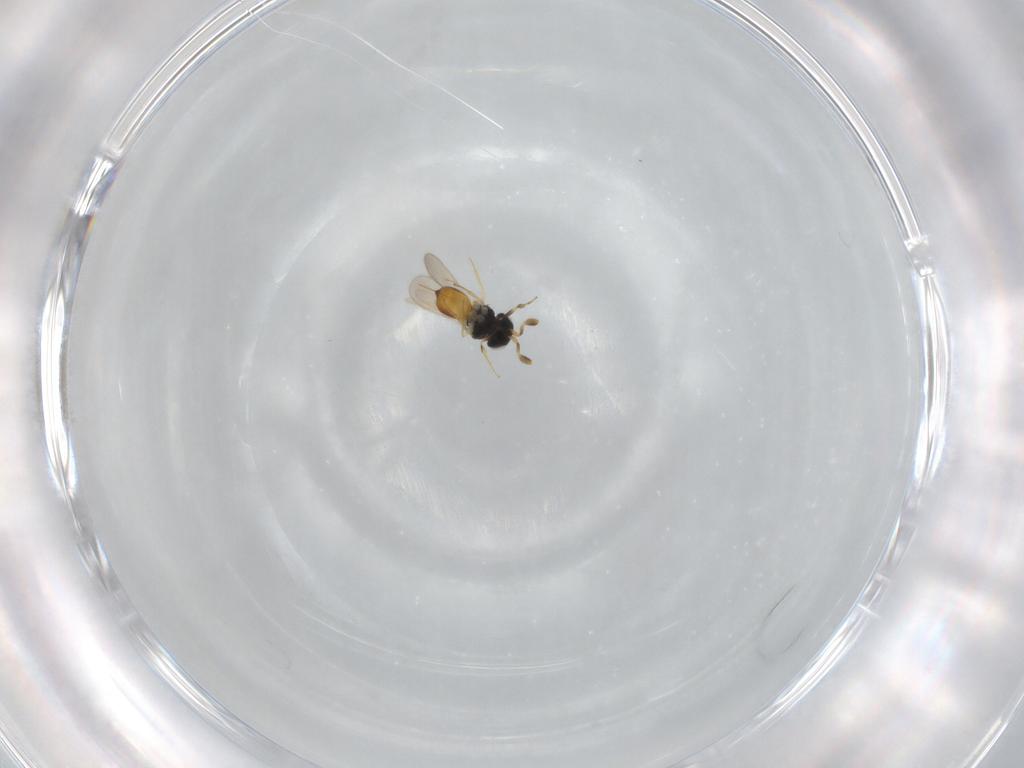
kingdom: Animalia
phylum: Arthropoda
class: Insecta
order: Hymenoptera
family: Scelionidae
